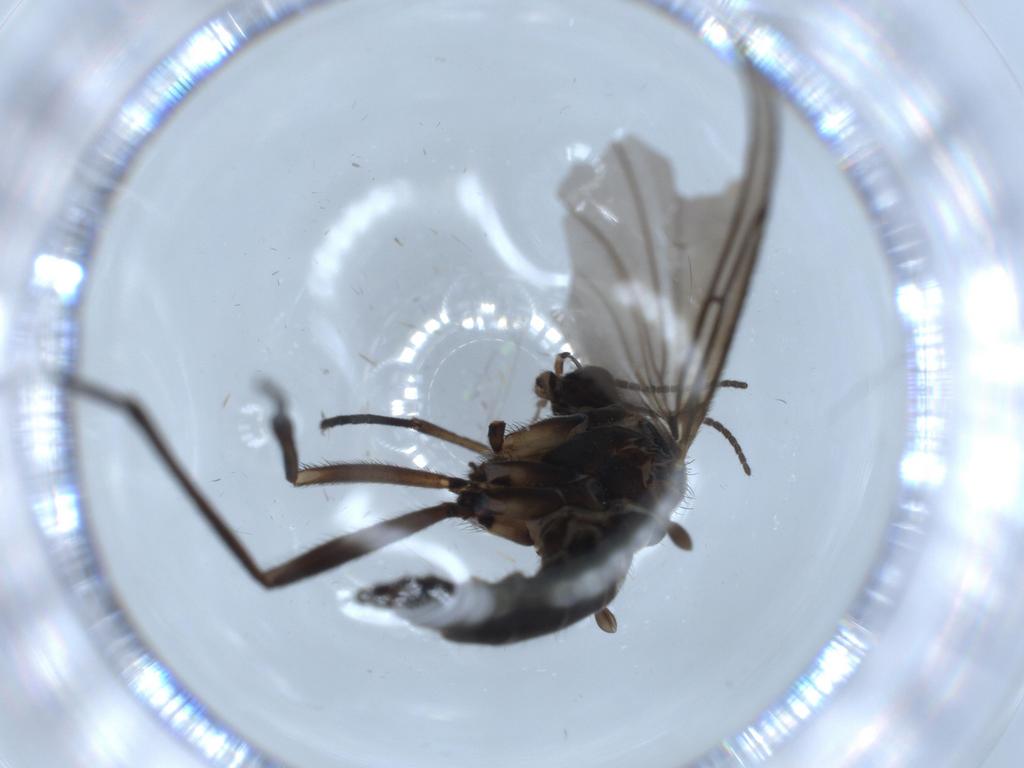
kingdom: Animalia
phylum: Arthropoda
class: Insecta
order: Diptera
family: Sciaridae
